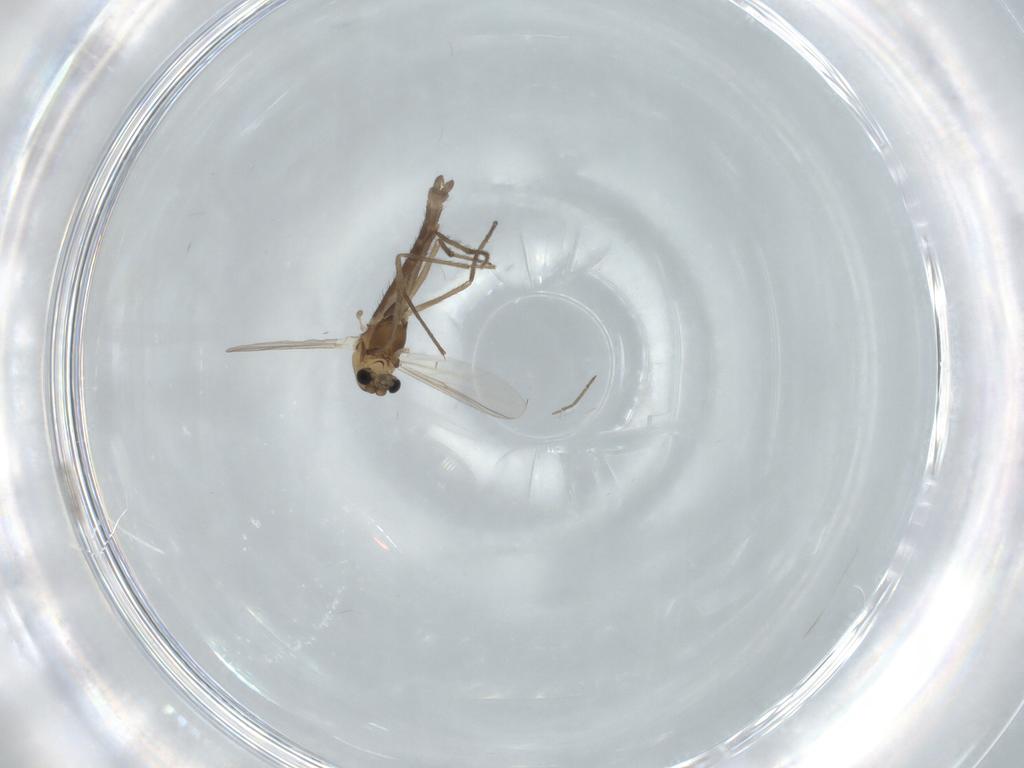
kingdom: Animalia
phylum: Arthropoda
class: Insecta
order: Diptera
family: Chironomidae
